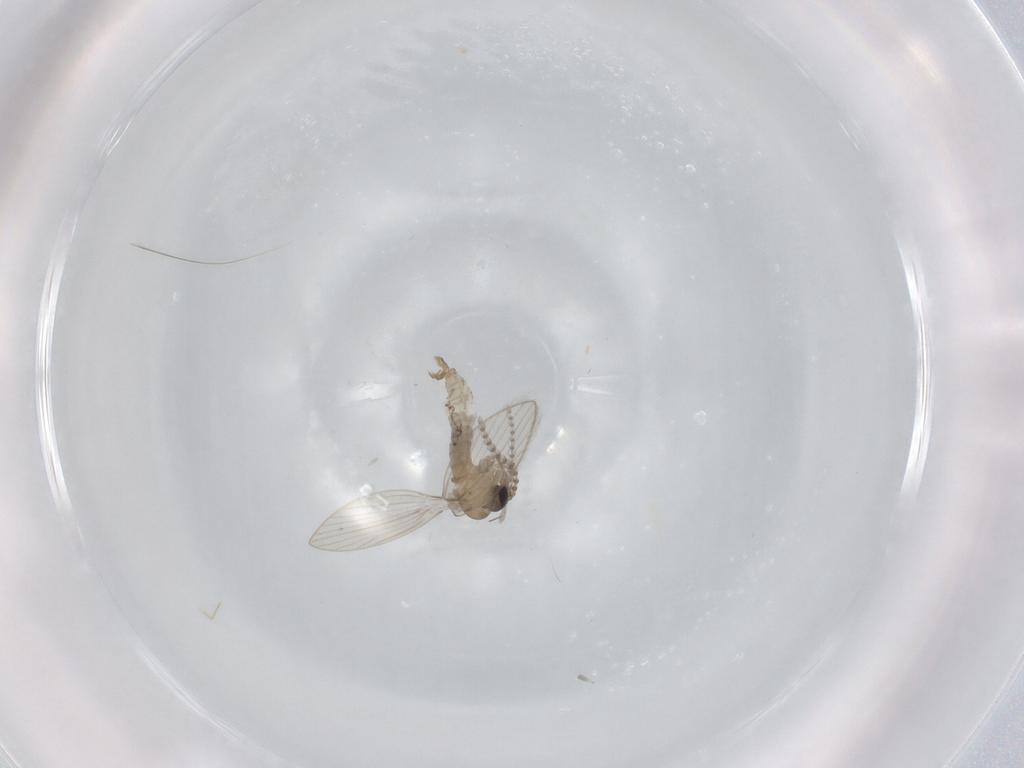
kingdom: Animalia
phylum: Arthropoda
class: Insecta
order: Diptera
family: Psychodidae
